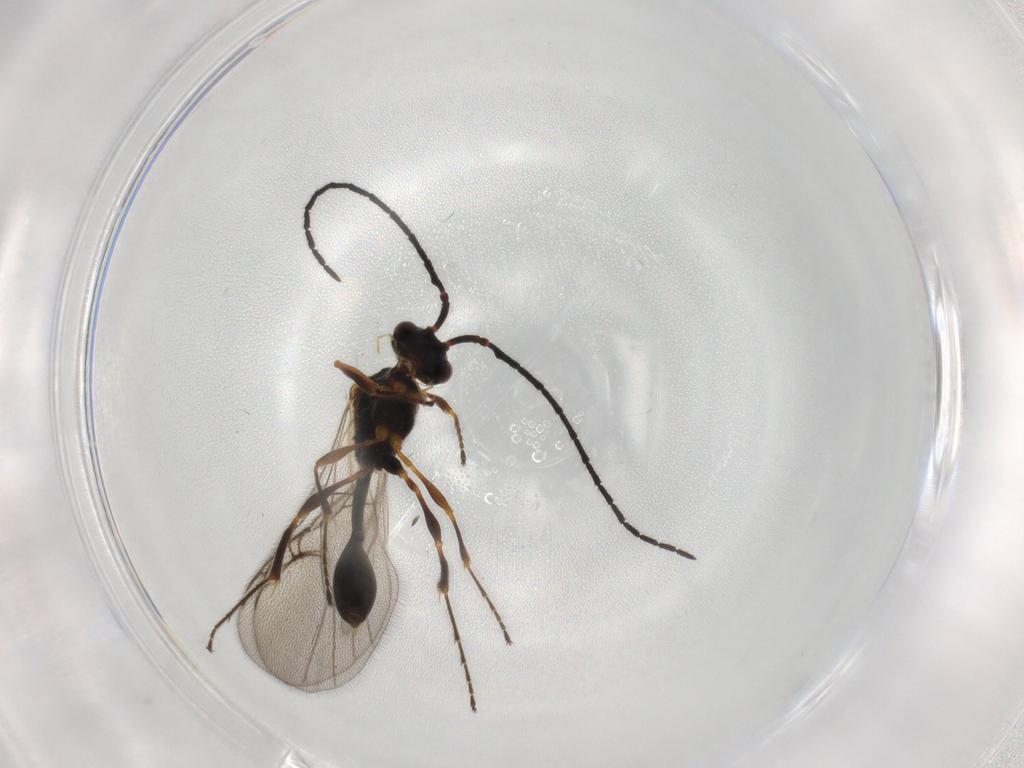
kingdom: Animalia
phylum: Arthropoda
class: Insecta
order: Hymenoptera
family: Diapriidae
